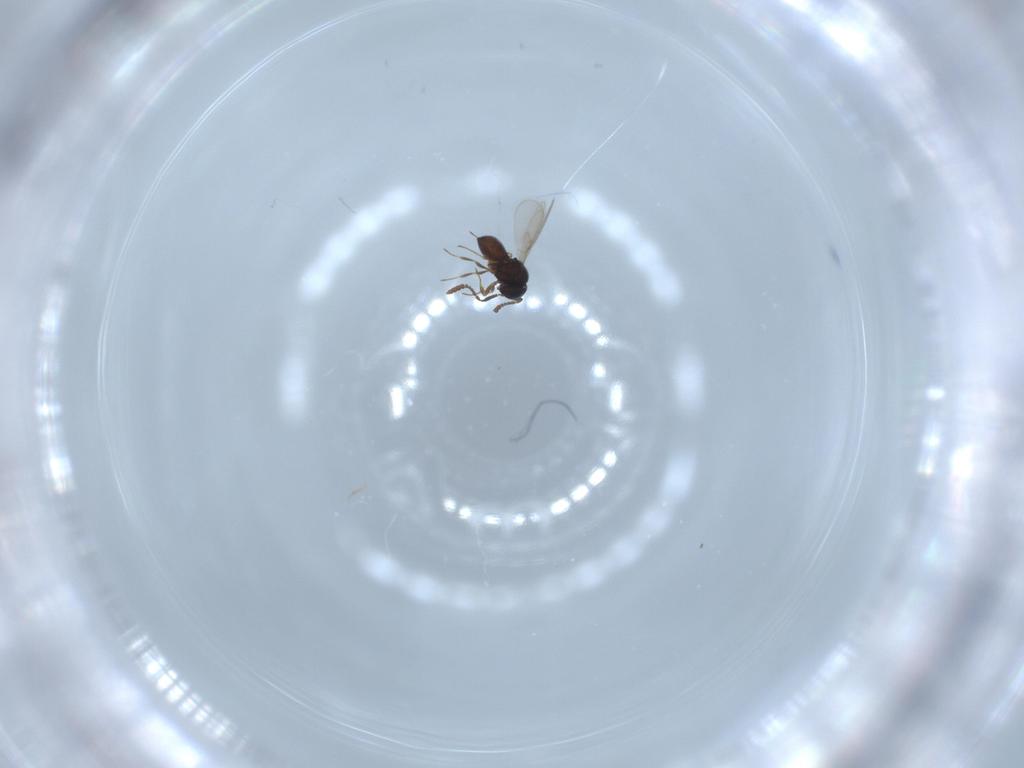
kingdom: Animalia
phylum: Arthropoda
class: Insecta
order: Hymenoptera
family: Scelionidae
